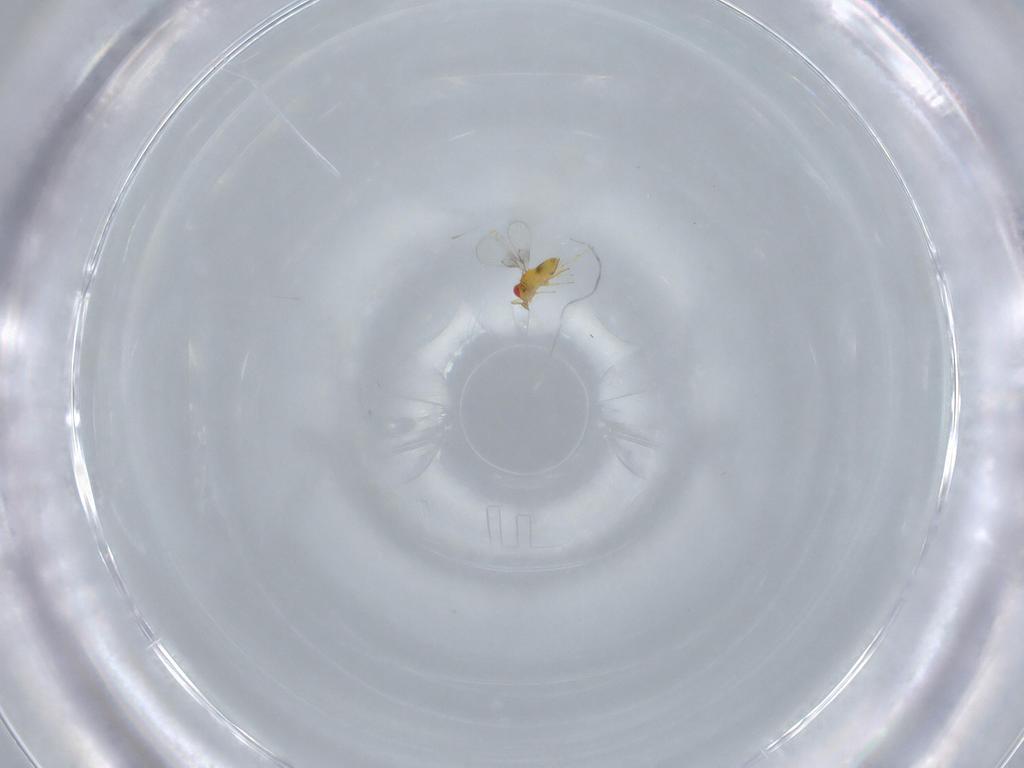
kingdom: Animalia
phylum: Arthropoda
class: Insecta
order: Hymenoptera
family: Trichogrammatidae
